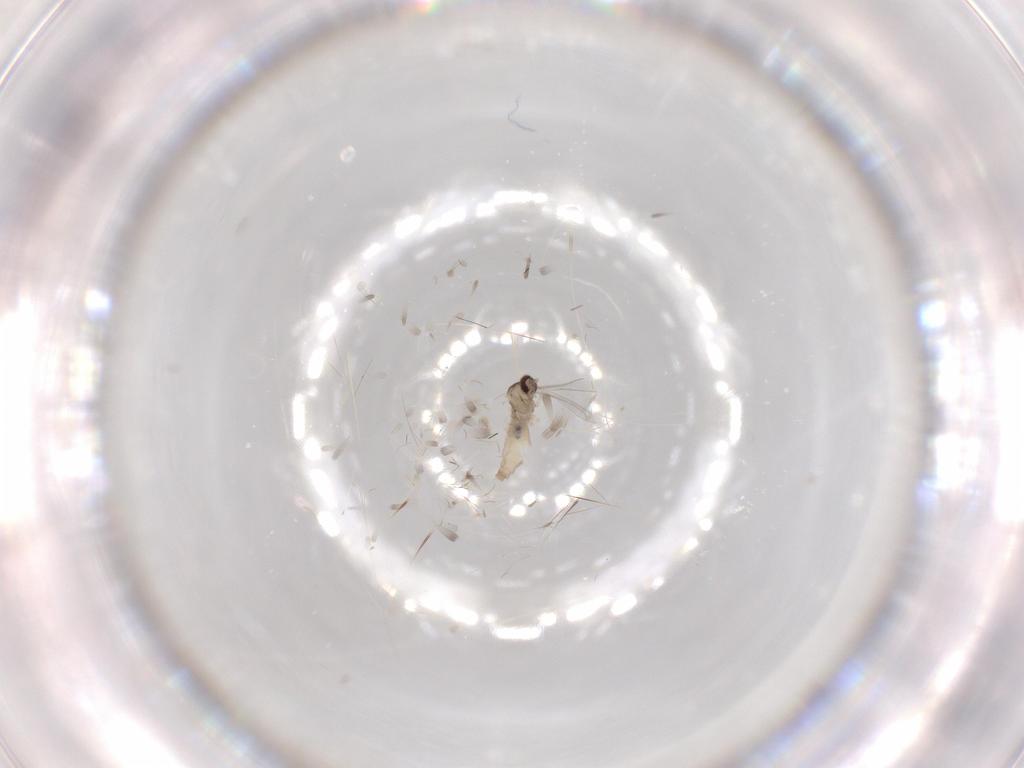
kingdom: Animalia
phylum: Arthropoda
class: Insecta
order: Diptera
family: Cecidomyiidae
